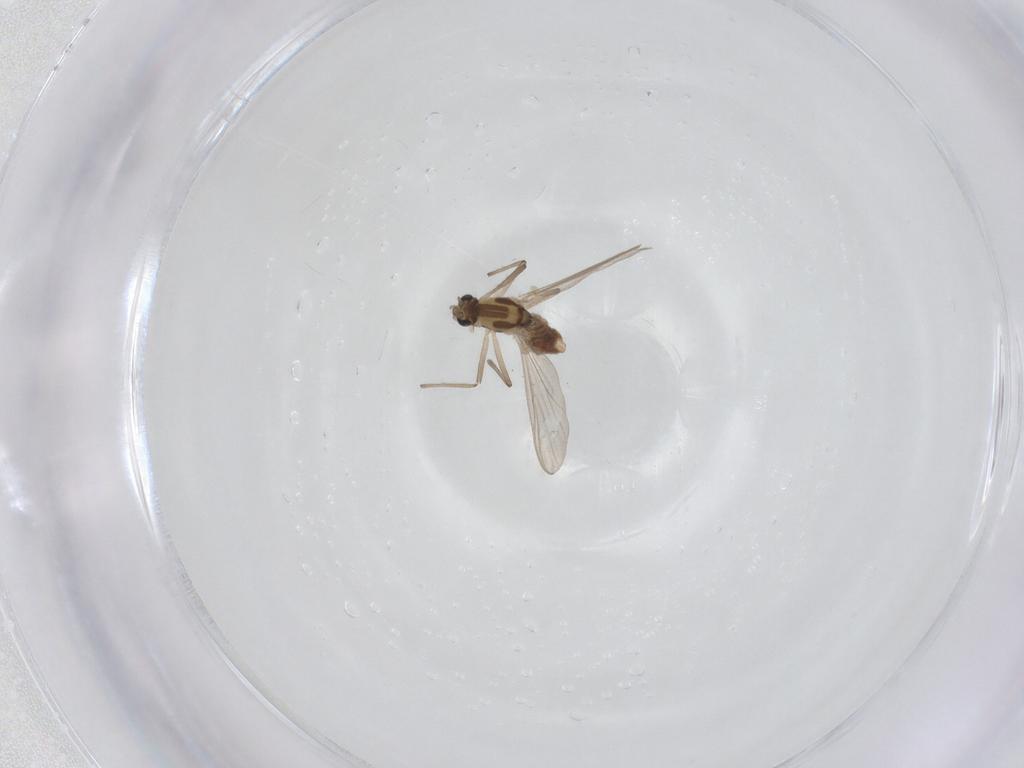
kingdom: Animalia
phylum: Arthropoda
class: Insecta
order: Diptera
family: Chironomidae
